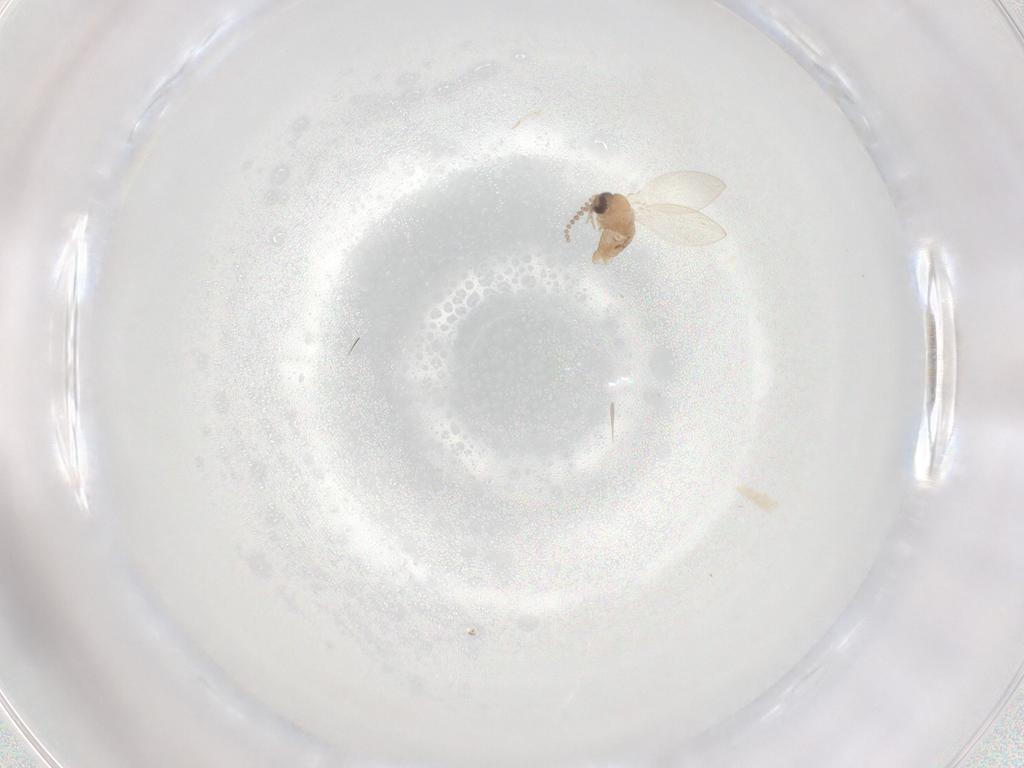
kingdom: Animalia
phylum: Arthropoda
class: Insecta
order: Diptera
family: Psychodidae
